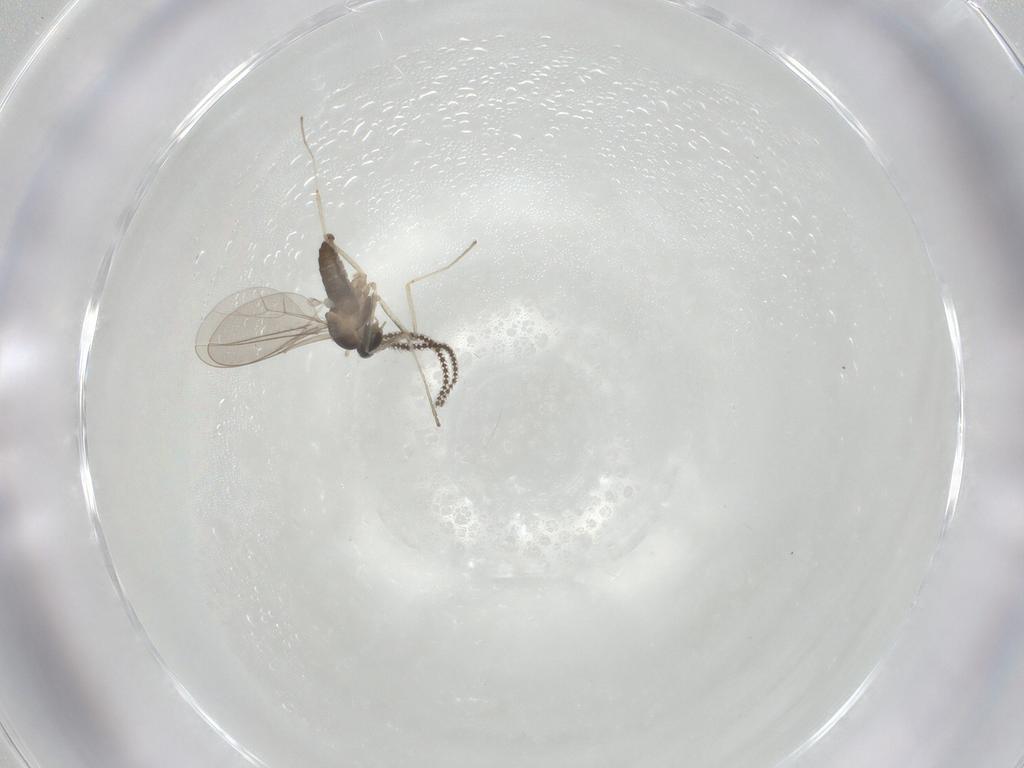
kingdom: Animalia
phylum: Arthropoda
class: Insecta
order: Diptera
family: Cecidomyiidae
